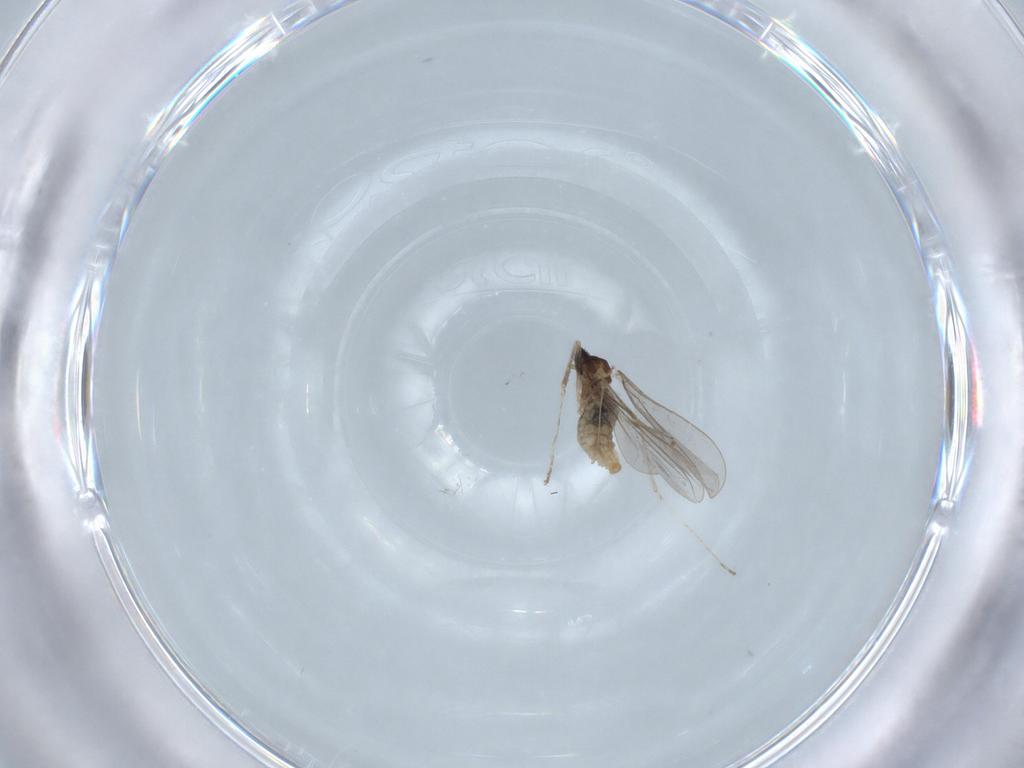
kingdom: Animalia
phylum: Arthropoda
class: Insecta
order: Diptera
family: Cecidomyiidae
